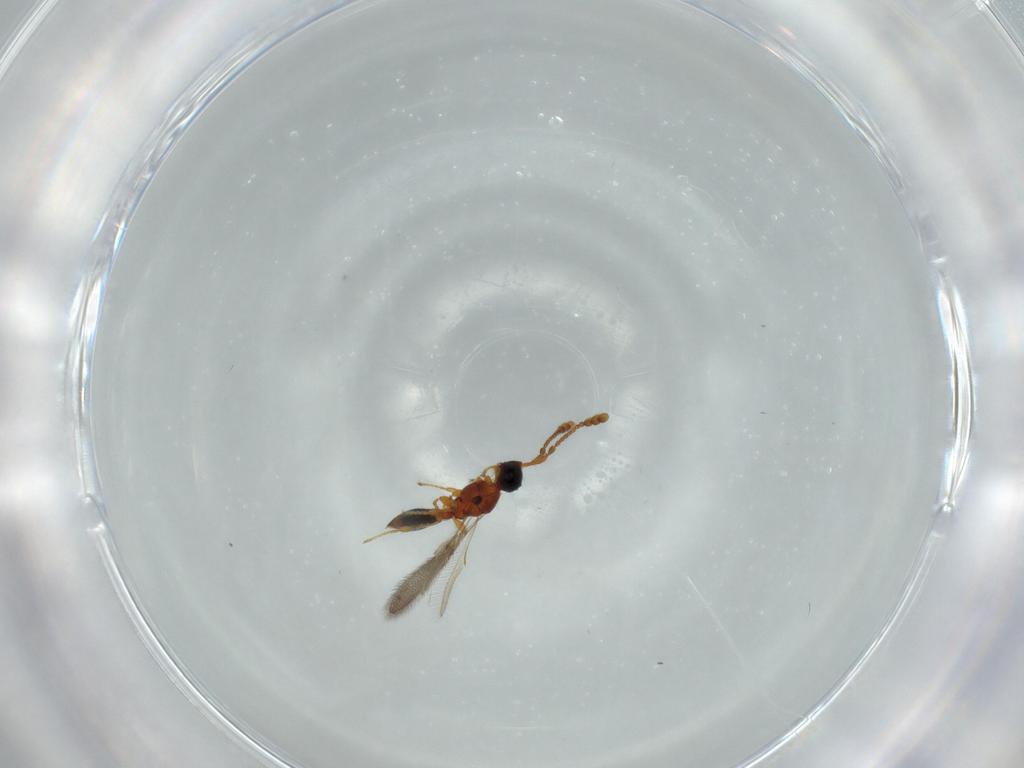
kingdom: Animalia
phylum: Arthropoda
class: Insecta
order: Hymenoptera
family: Diapriidae
